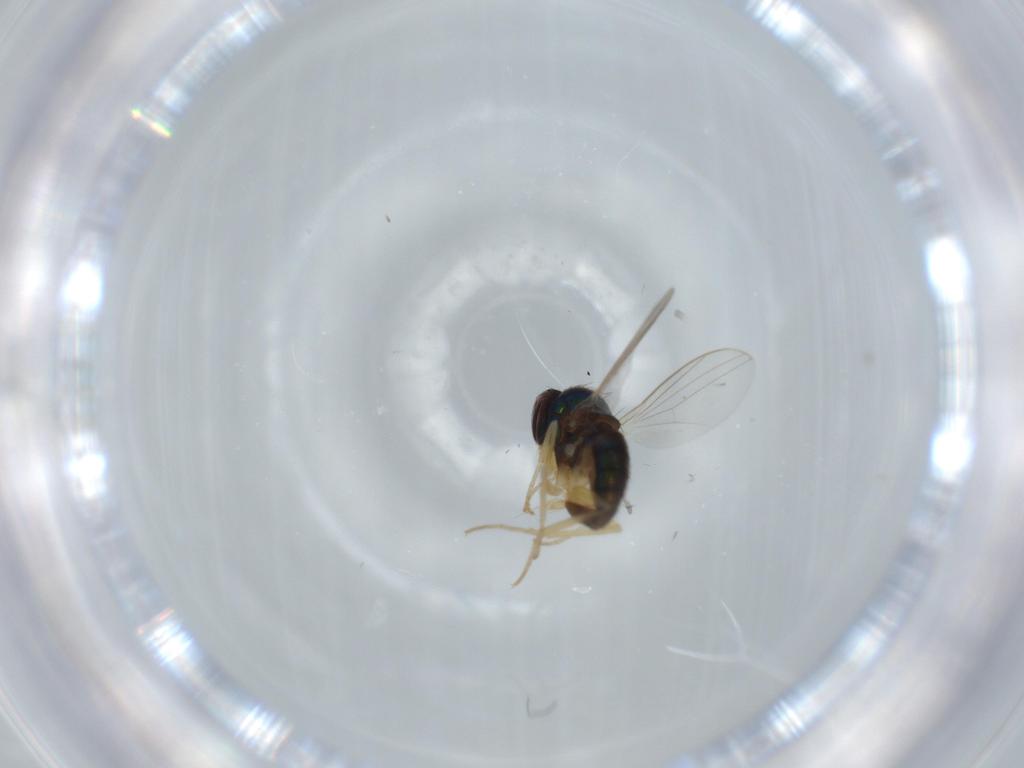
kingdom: Animalia
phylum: Arthropoda
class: Insecta
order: Diptera
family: Dolichopodidae
